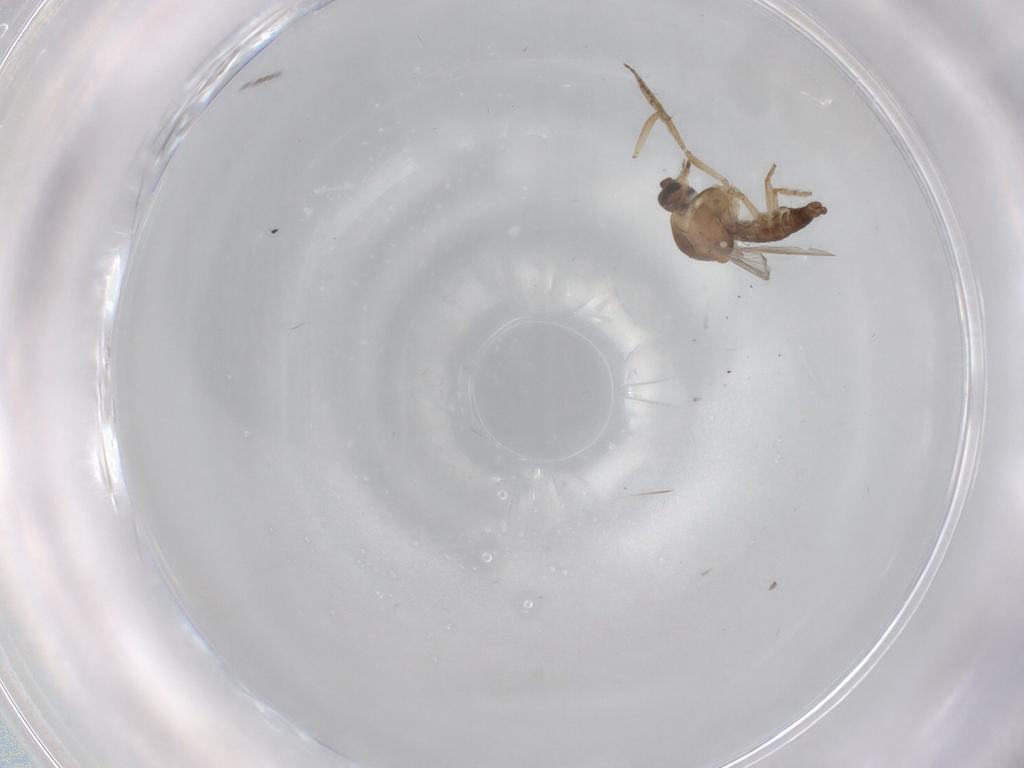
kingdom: Animalia
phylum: Arthropoda
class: Insecta
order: Diptera
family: Ceratopogonidae
